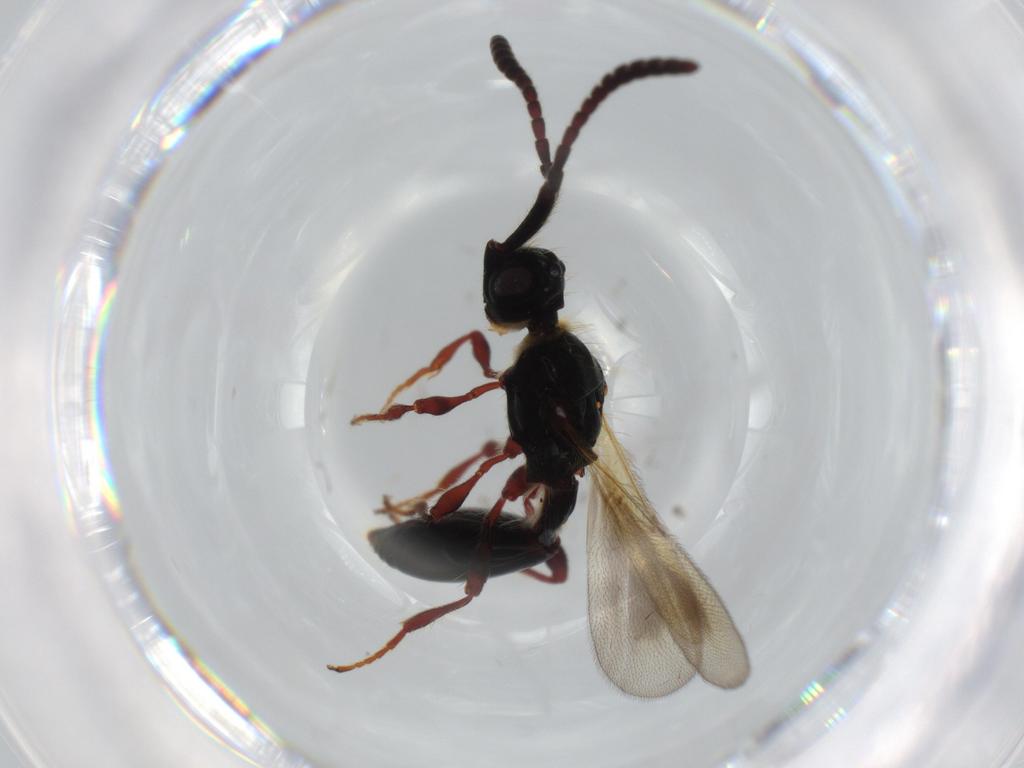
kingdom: Animalia
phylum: Arthropoda
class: Insecta
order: Hymenoptera
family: Diapriidae
